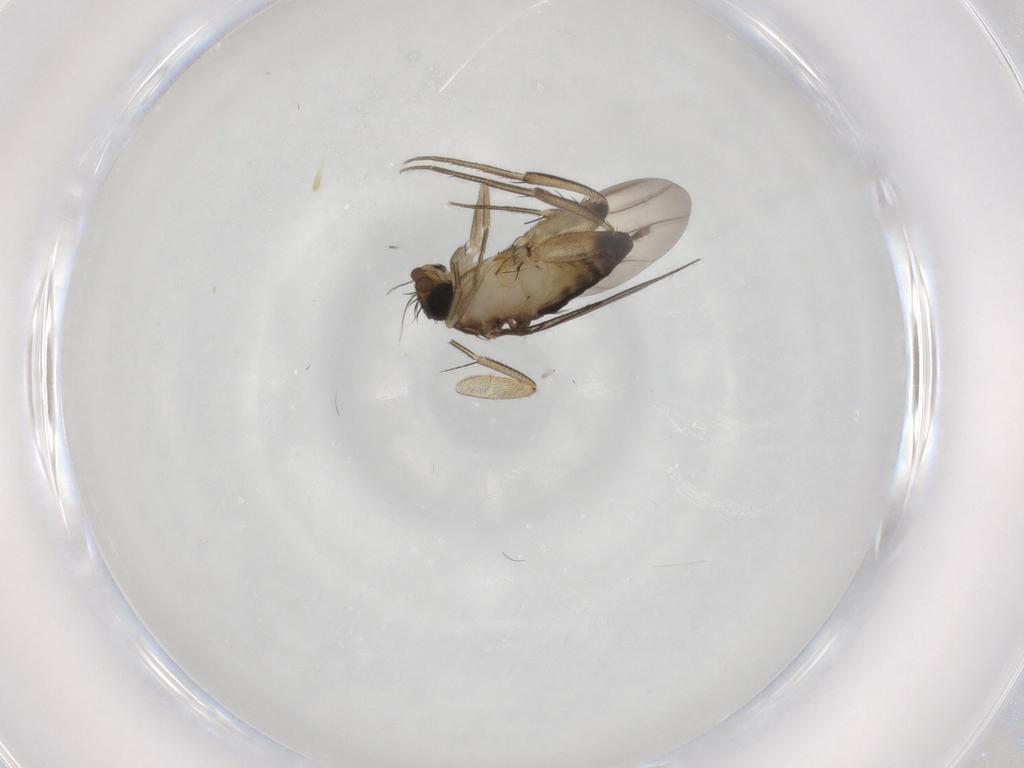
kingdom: Animalia
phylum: Arthropoda
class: Insecta
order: Diptera
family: Phoridae
